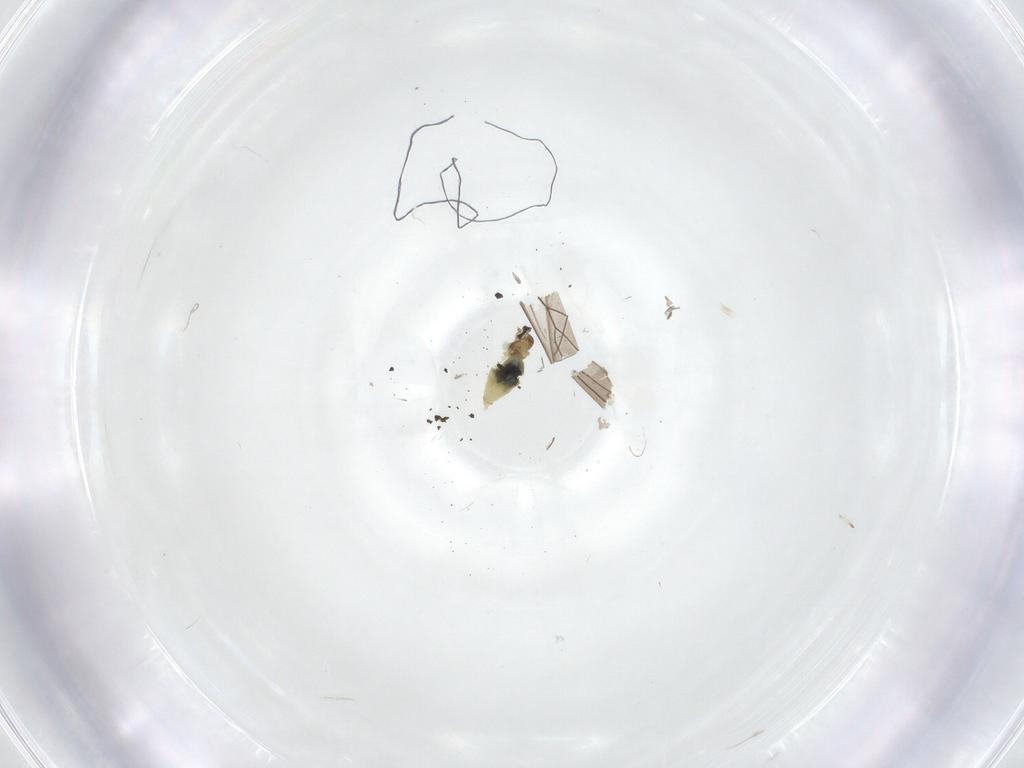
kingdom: Animalia
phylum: Arthropoda
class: Insecta
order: Diptera
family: Cecidomyiidae
